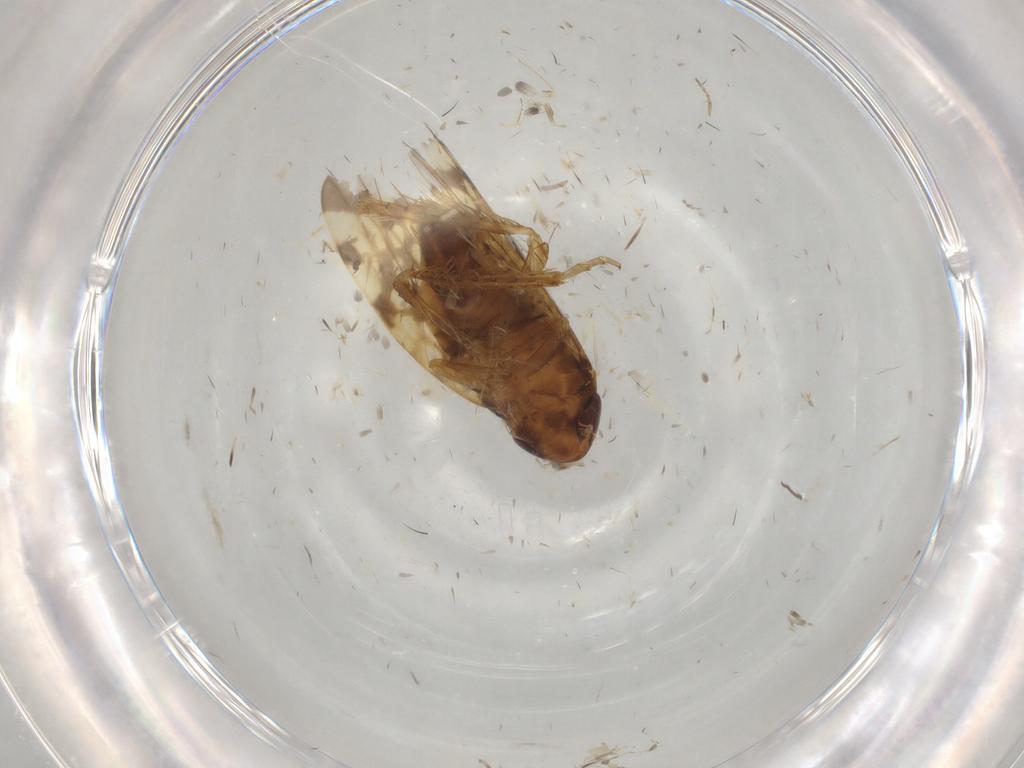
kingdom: Animalia
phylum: Arthropoda
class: Insecta
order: Hemiptera
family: Cicadellidae
